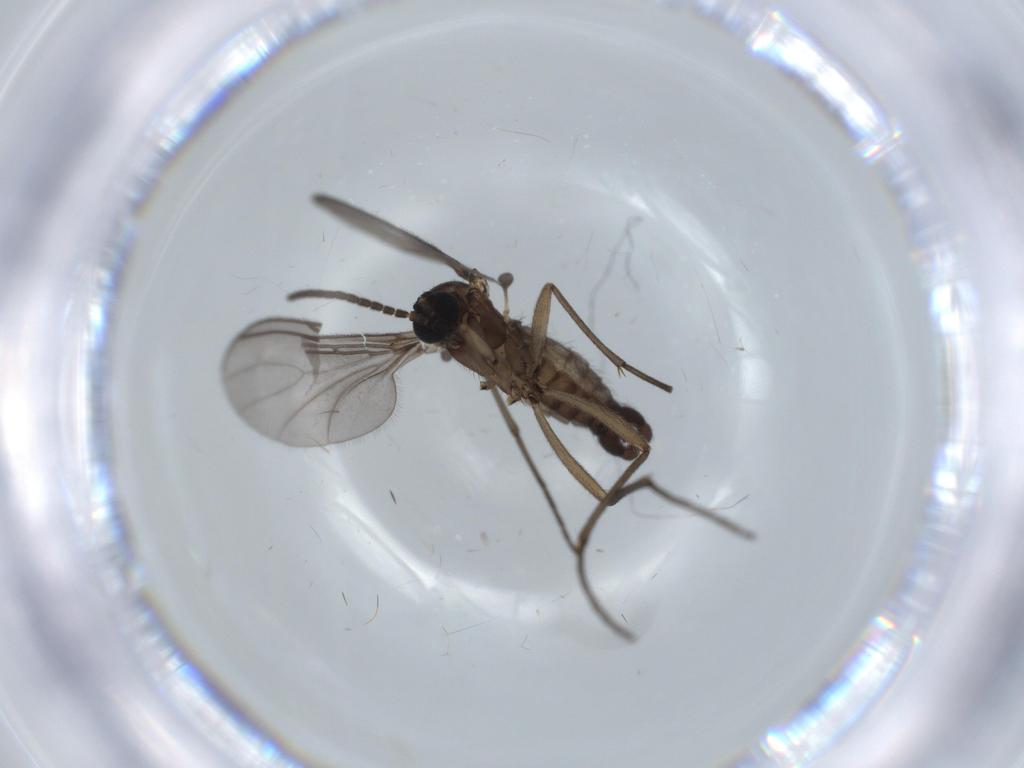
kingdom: Animalia
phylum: Arthropoda
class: Insecta
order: Diptera
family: Sciaridae
